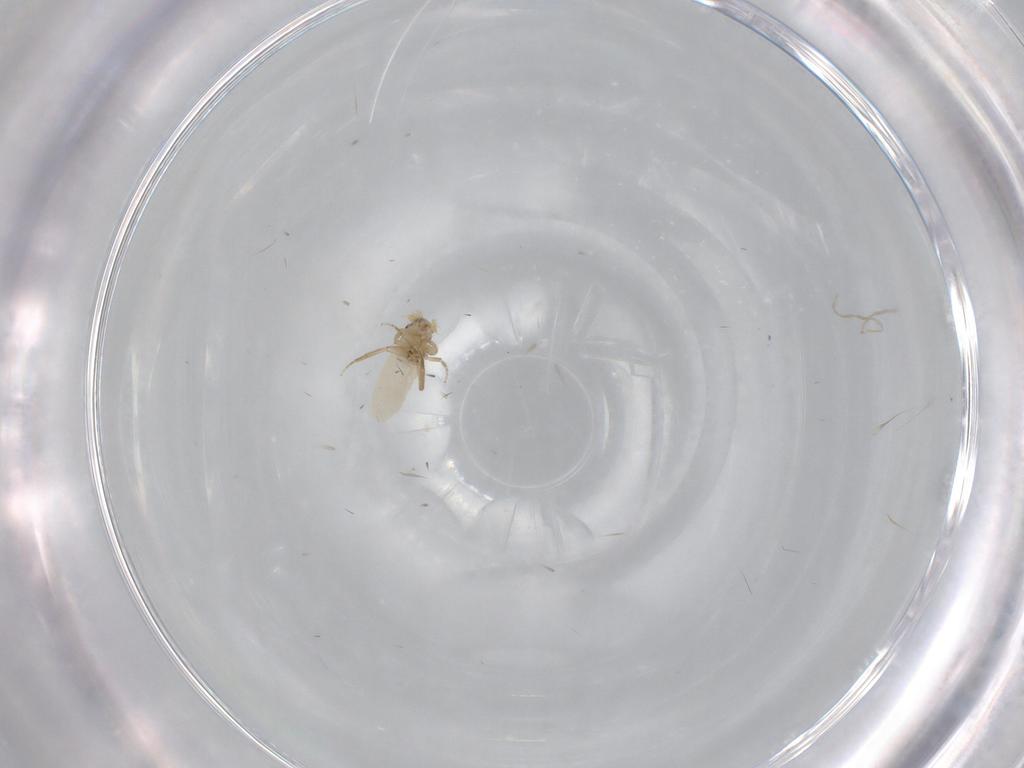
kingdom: Animalia
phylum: Arthropoda
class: Insecta
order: Diptera
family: Phoridae
